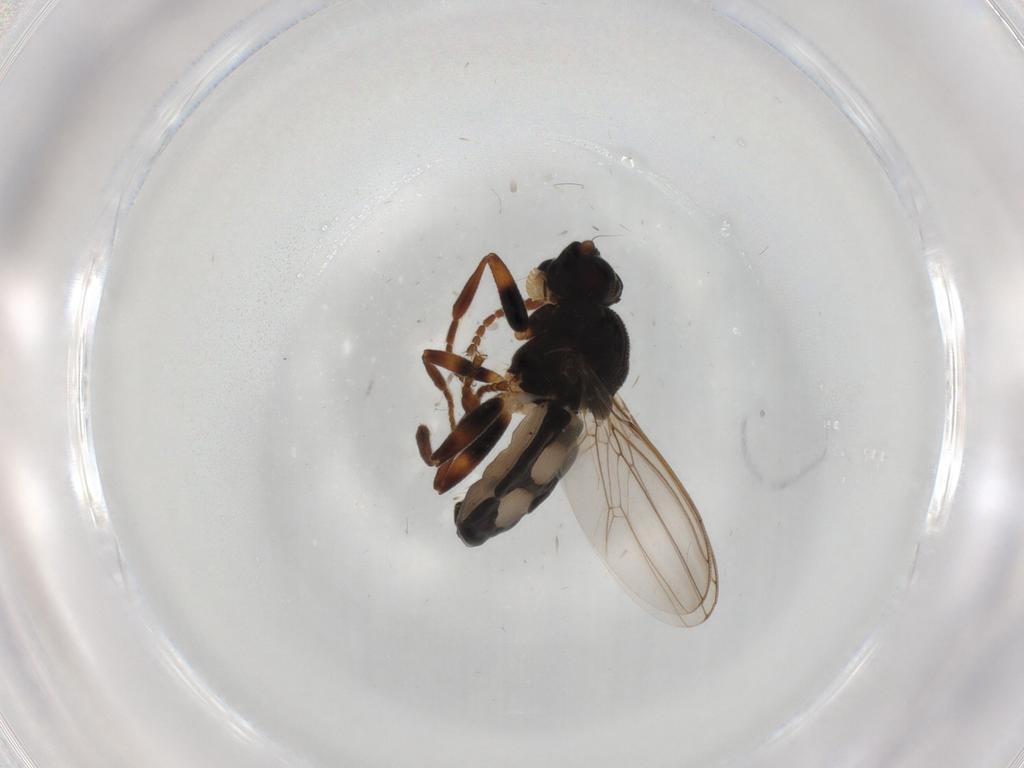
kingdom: Animalia
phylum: Arthropoda
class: Insecta
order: Diptera
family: Sphaeroceridae
